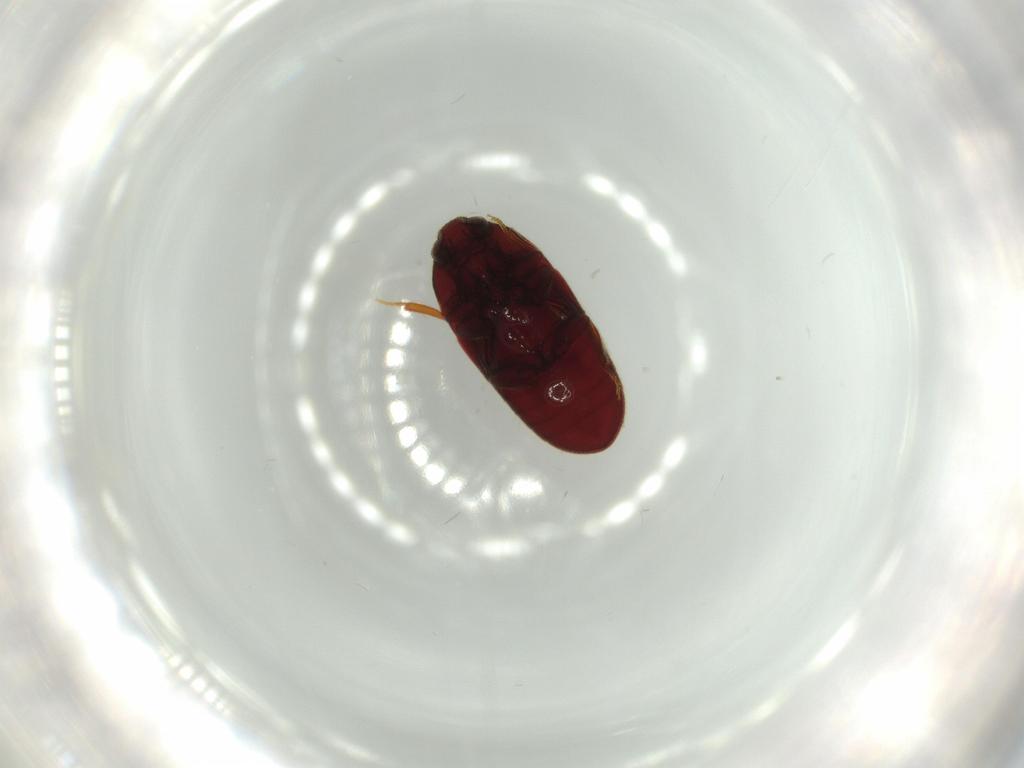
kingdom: Animalia
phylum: Arthropoda
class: Insecta
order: Coleoptera
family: Throscidae
